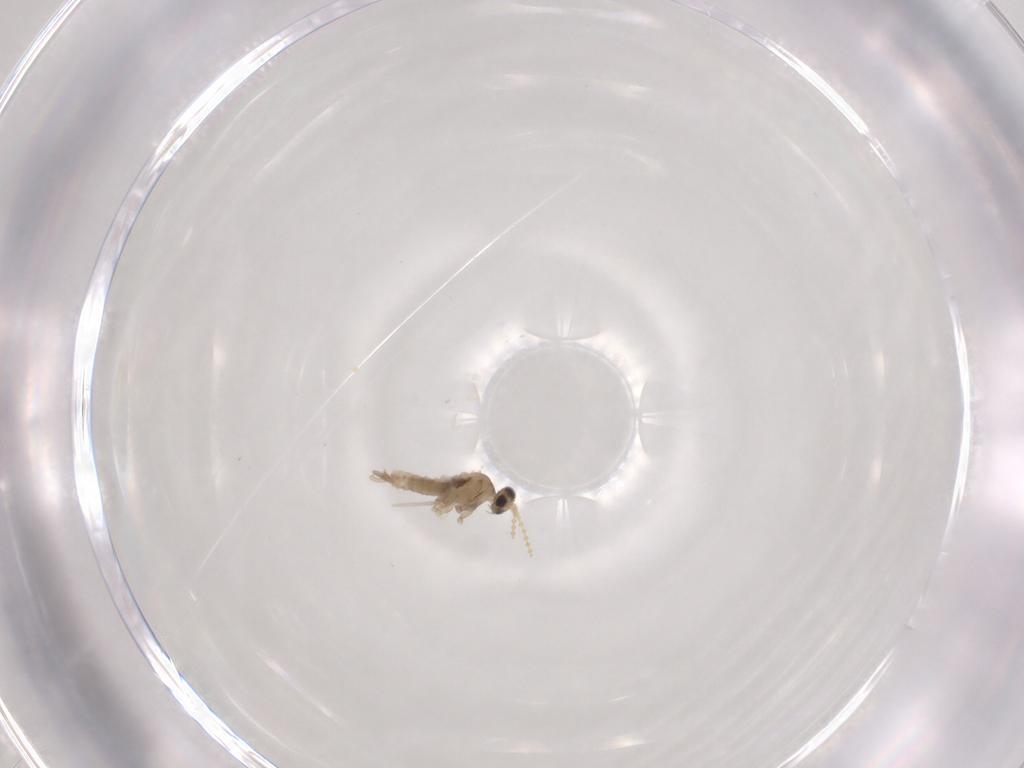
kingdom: Animalia
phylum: Arthropoda
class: Insecta
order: Diptera
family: Cecidomyiidae
